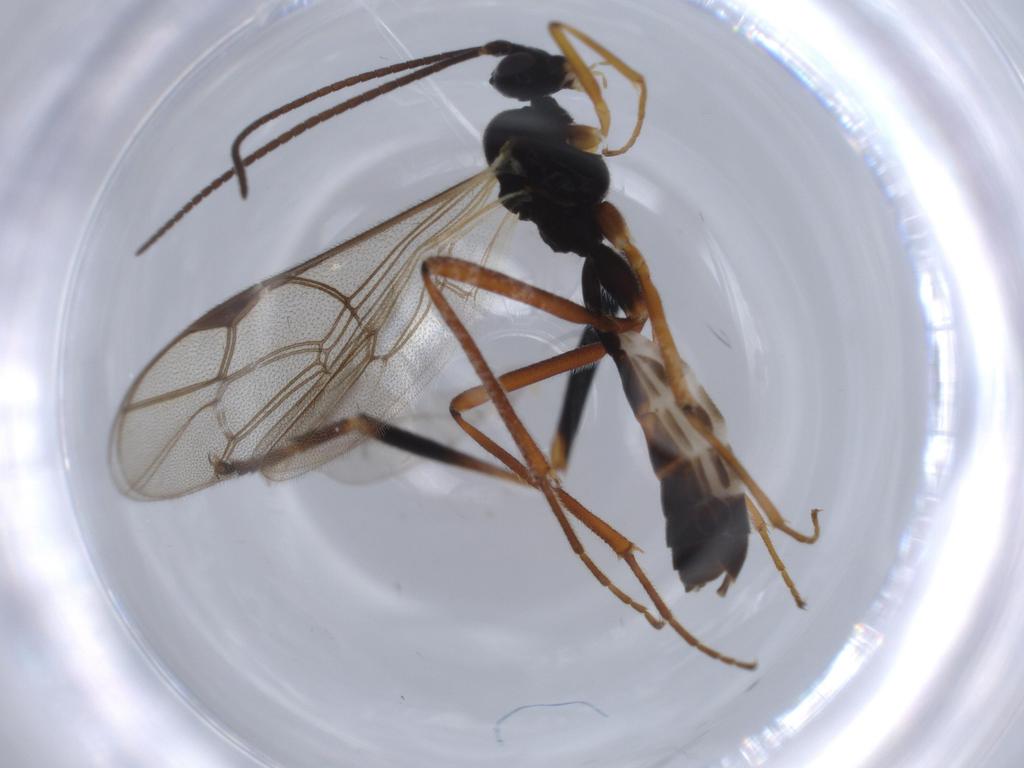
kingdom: Animalia
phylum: Arthropoda
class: Insecta
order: Hymenoptera
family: Ichneumonidae
